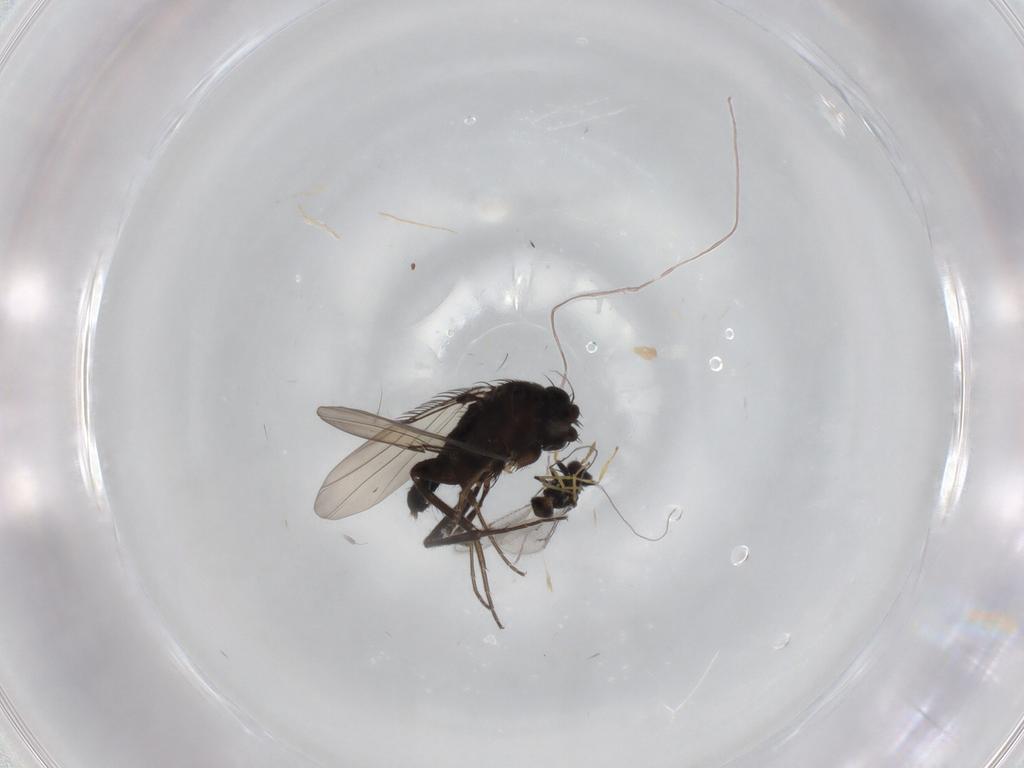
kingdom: Animalia
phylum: Arthropoda
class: Insecta
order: Diptera
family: Phoridae
